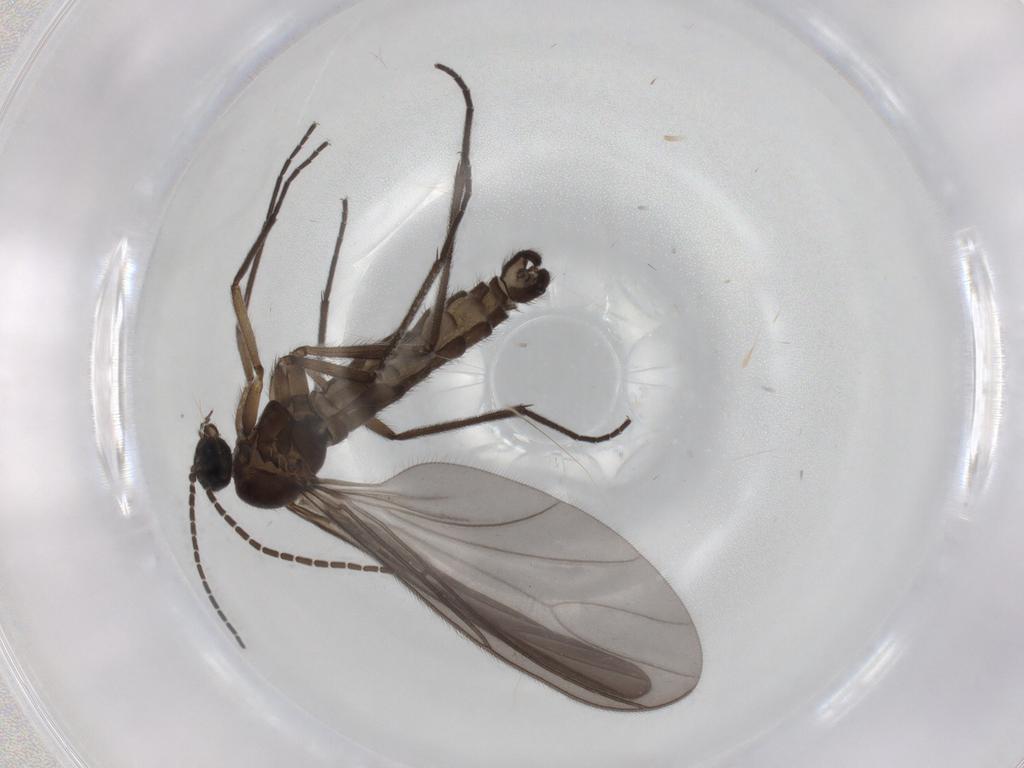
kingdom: Animalia
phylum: Arthropoda
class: Insecta
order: Diptera
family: Sciaridae
